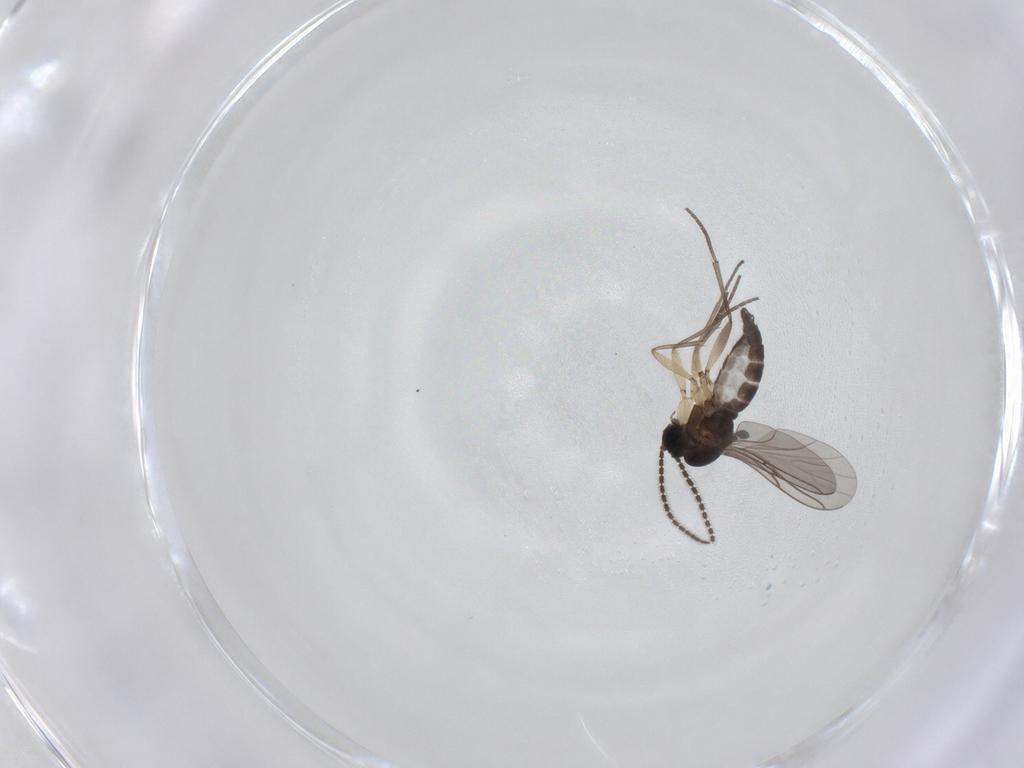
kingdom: Animalia
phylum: Arthropoda
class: Insecta
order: Diptera
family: Sciaridae
